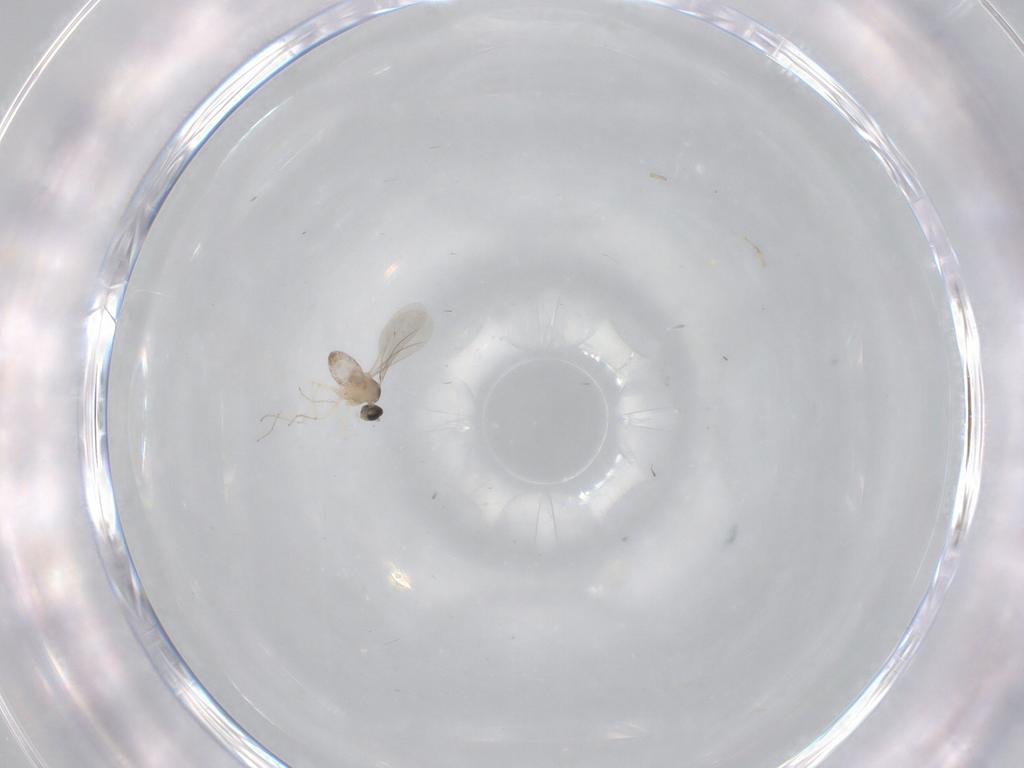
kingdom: Animalia
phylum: Arthropoda
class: Insecta
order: Diptera
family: Cecidomyiidae
